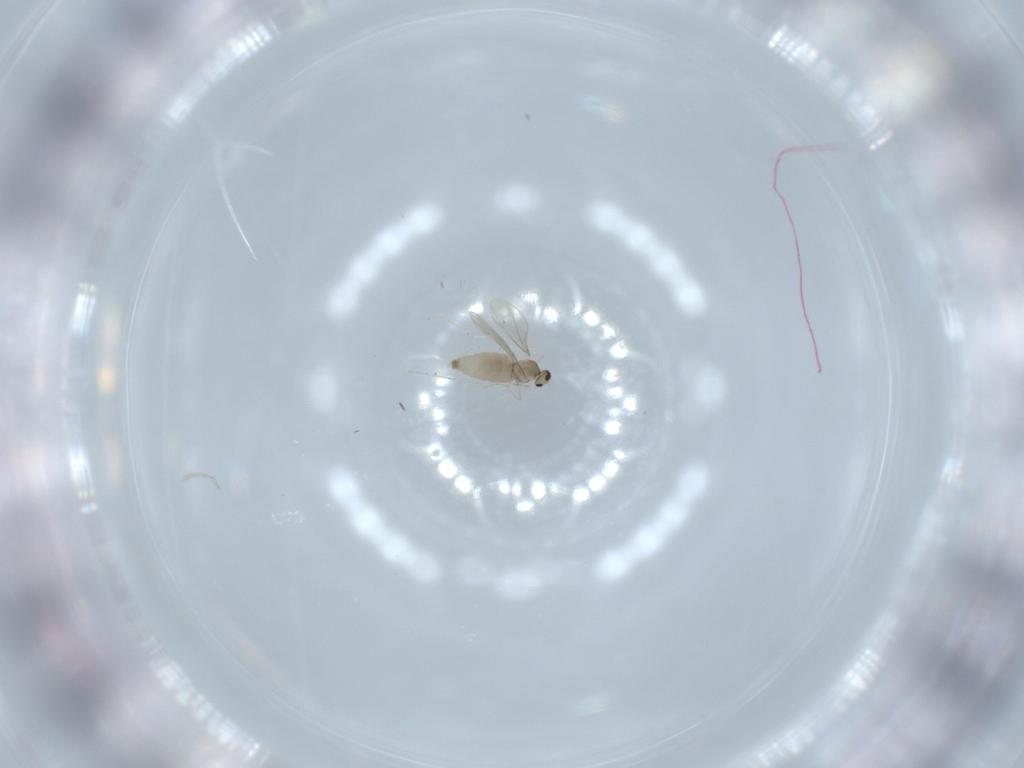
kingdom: Animalia
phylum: Arthropoda
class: Insecta
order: Diptera
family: Cecidomyiidae
